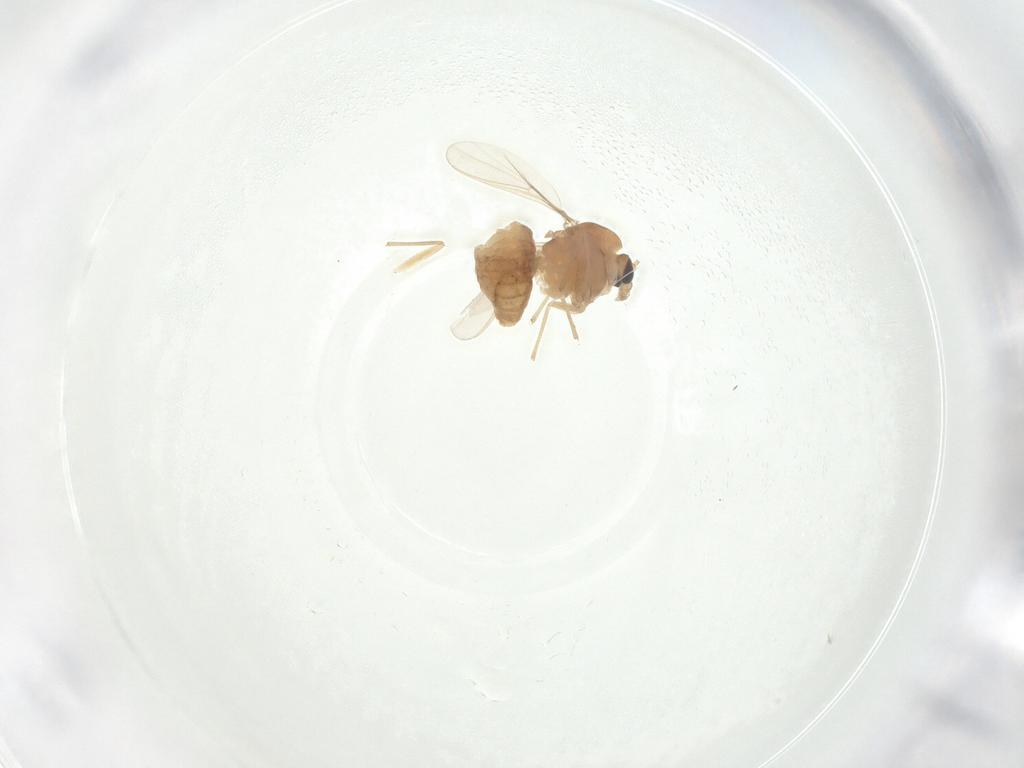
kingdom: Animalia
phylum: Arthropoda
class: Insecta
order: Diptera
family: Chironomidae
